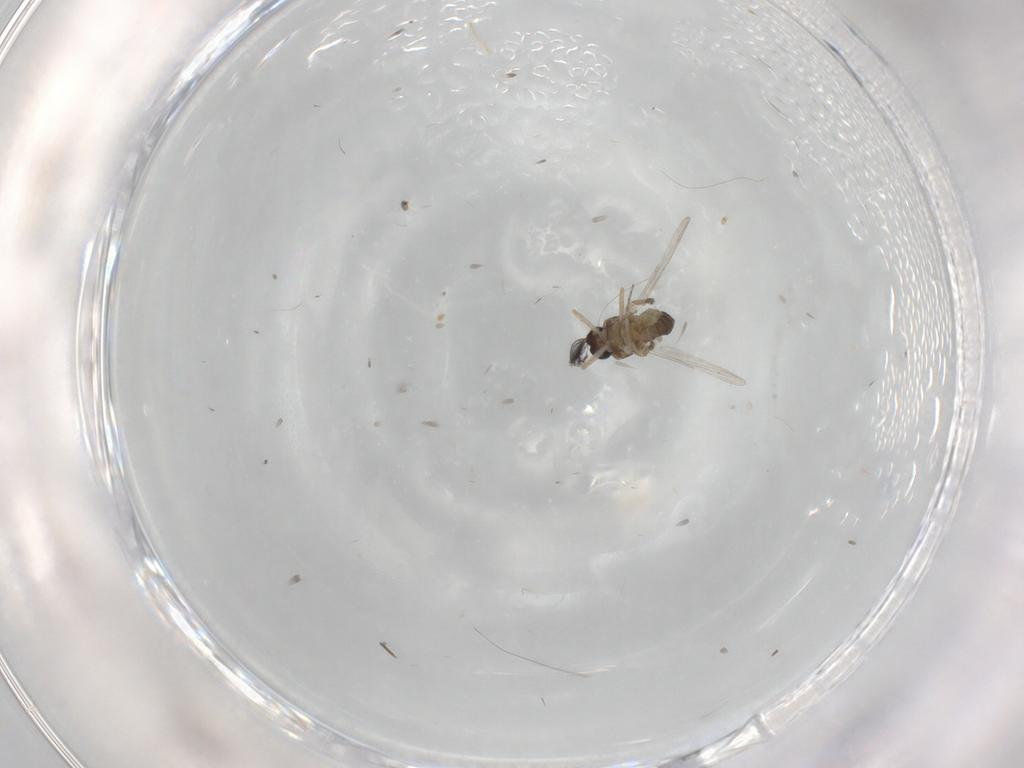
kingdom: Animalia
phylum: Arthropoda
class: Insecta
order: Diptera
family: Ceratopogonidae
